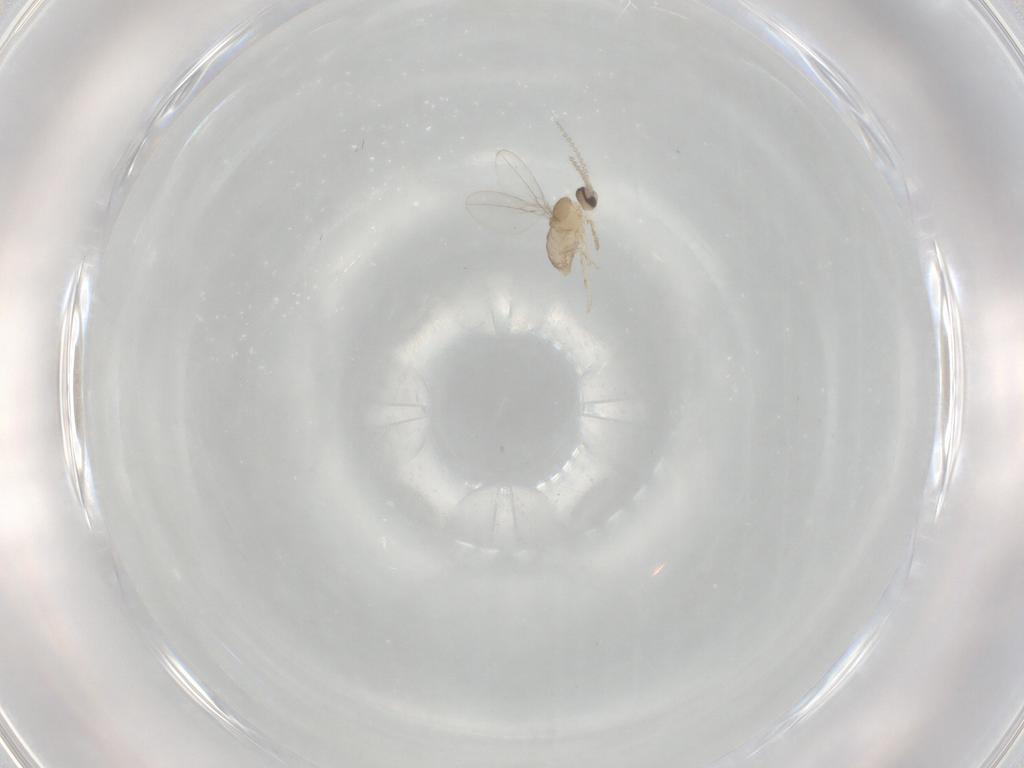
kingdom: Animalia
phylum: Arthropoda
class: Insecta
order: Diptera
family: Cecidomyiidae
